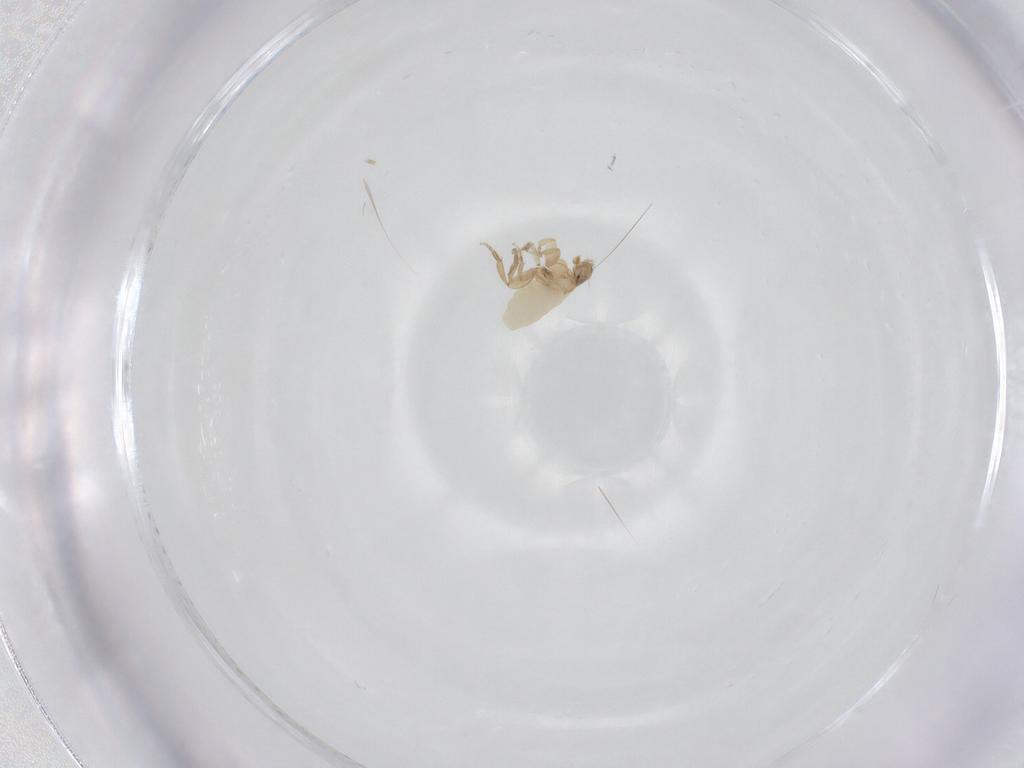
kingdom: Animalia
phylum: Arthropoda
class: Insecta
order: Diptera
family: Phoridae
